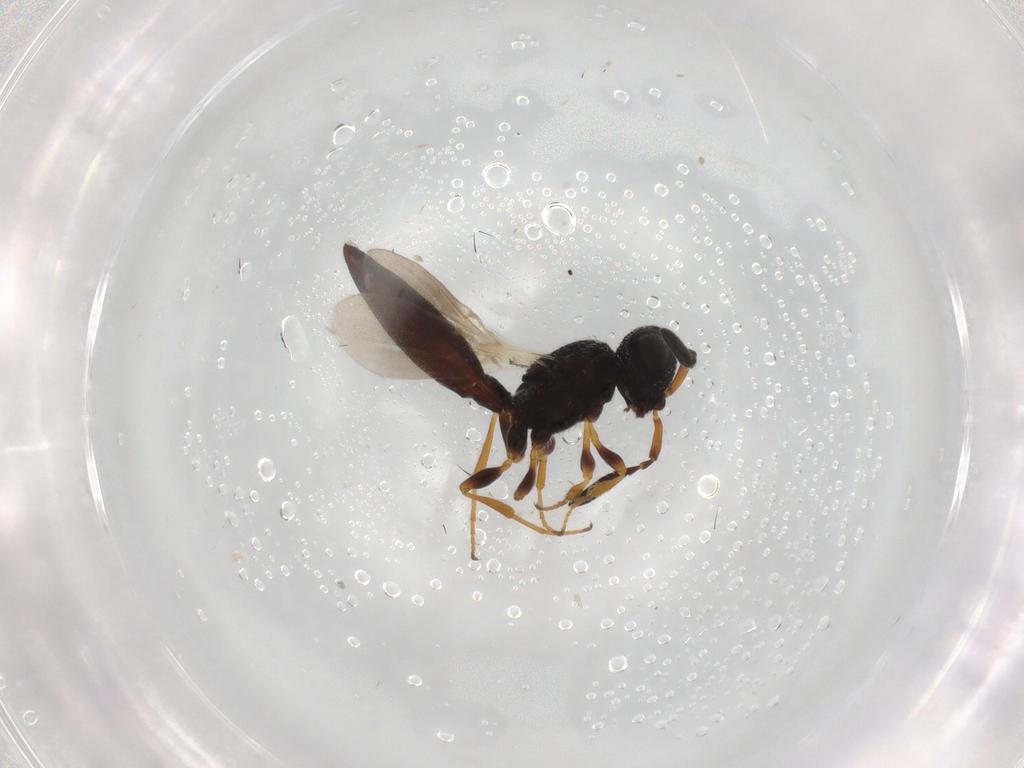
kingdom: Animalia
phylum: Arthropoda
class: Insecta
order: Hymenoptera
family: Scelionidae
